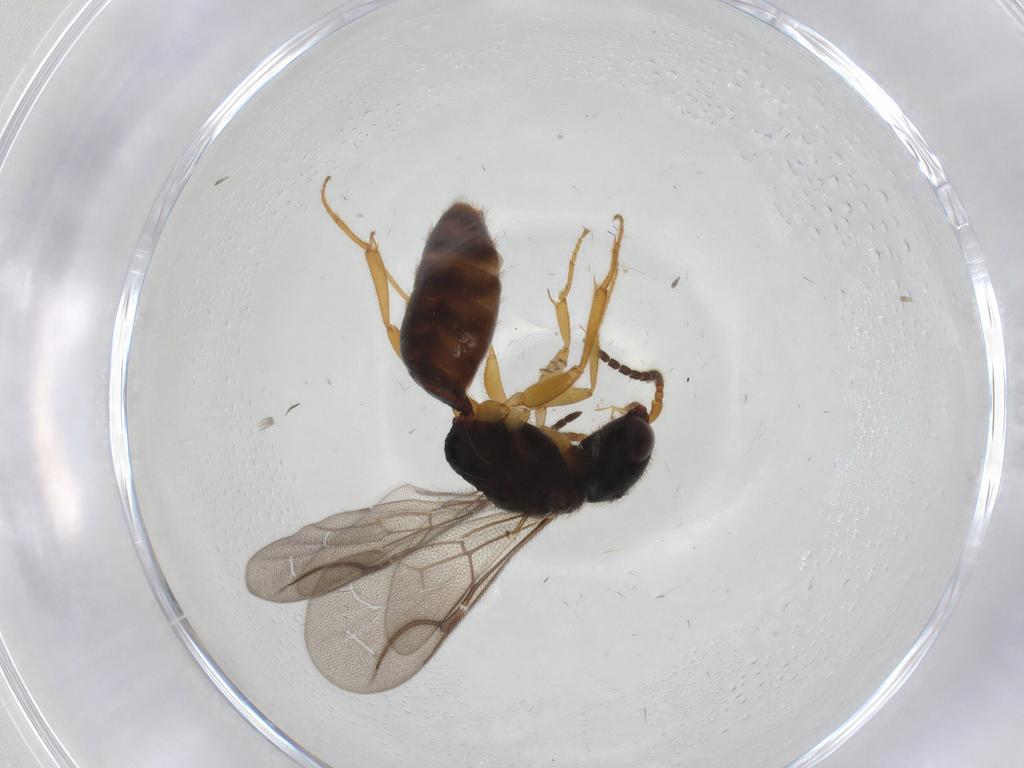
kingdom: Animalia
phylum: Arthropoda
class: Insecta
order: Hymenoptera
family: Bethylidae
